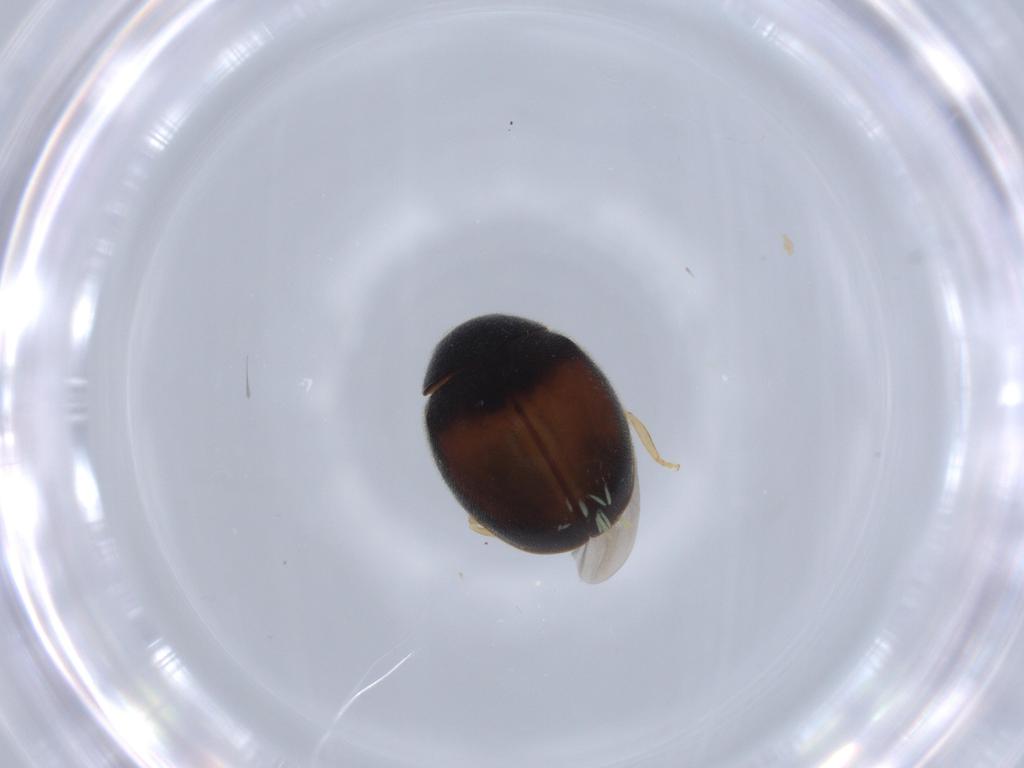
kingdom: Animalia
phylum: Arthropoda
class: Insecta
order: Coleoptera
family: Coccinellidae
